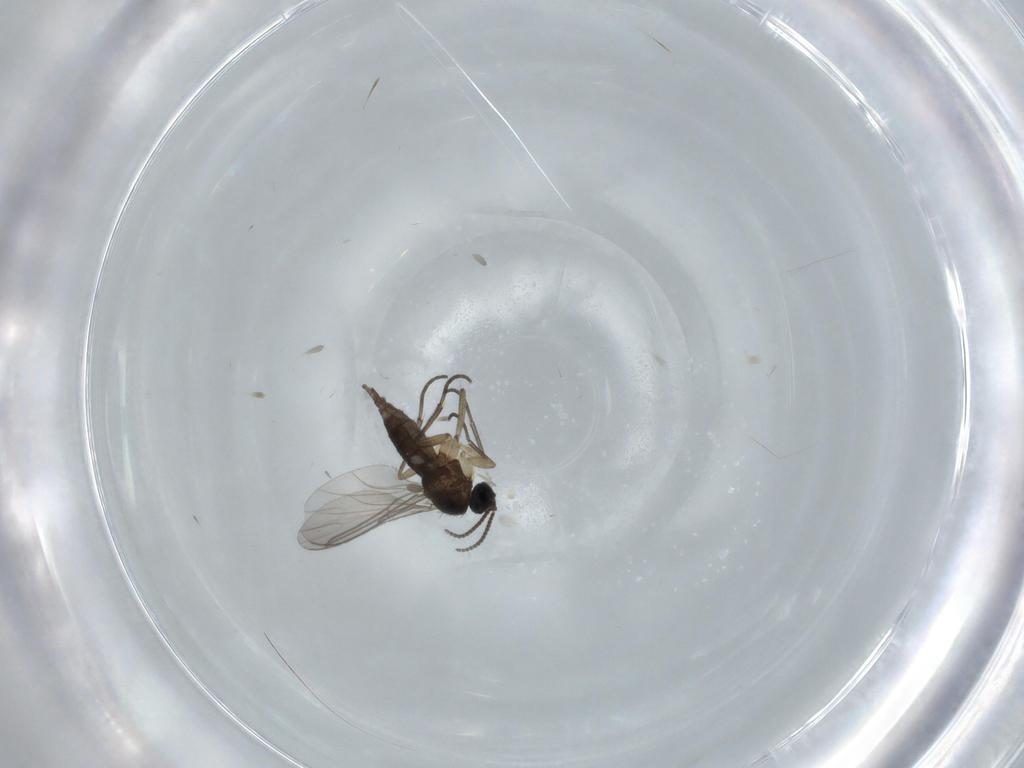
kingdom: Animalia
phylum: Arthropoda
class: Insecta
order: Diptera
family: Sciaridae
